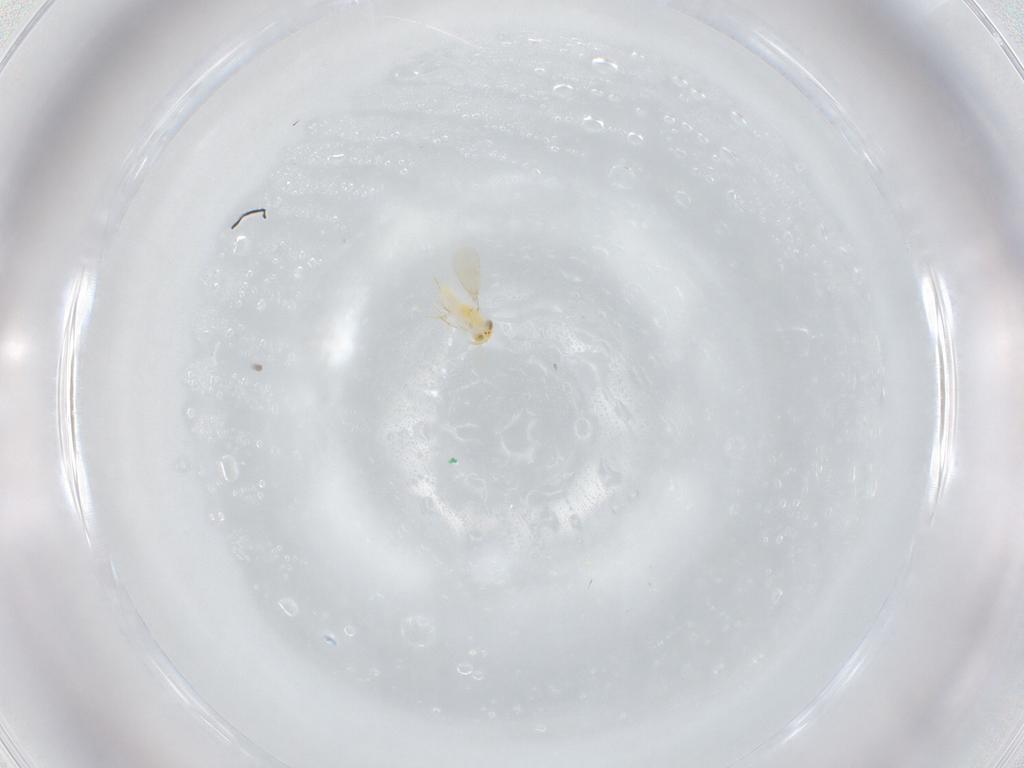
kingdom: Animalia
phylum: Arthropoda
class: Insecta
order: Hymenoptera
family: Aphelinidae
